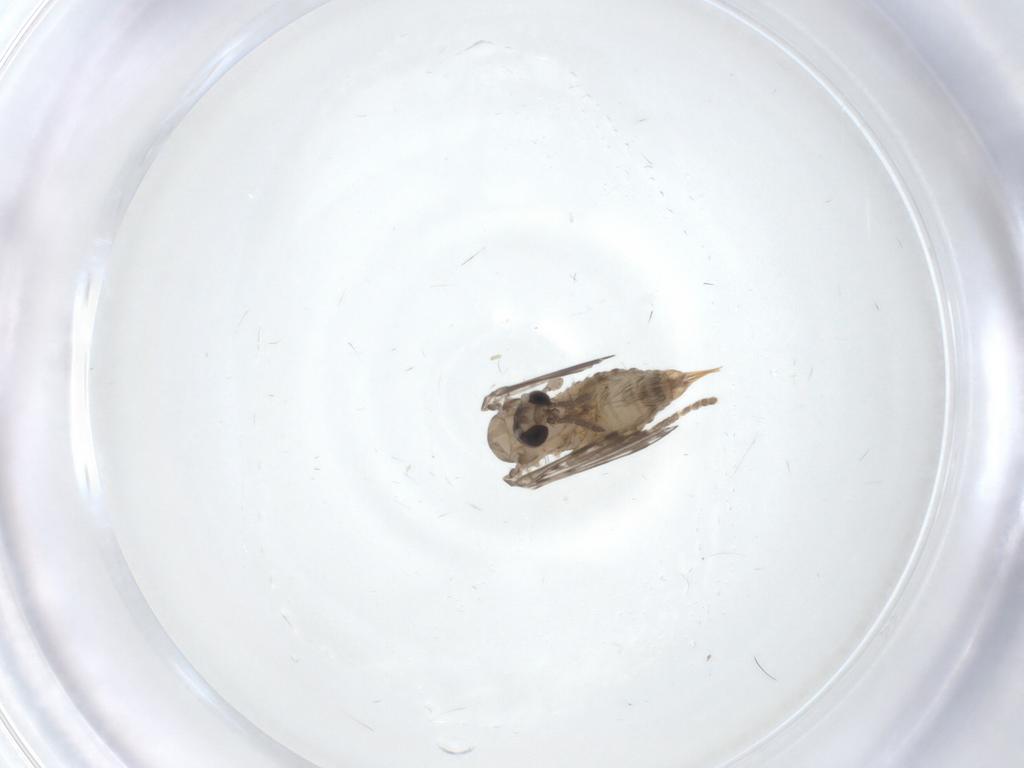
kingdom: Animalia
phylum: Arthropoda
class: Insecta
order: Diptera
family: Psychodidae
